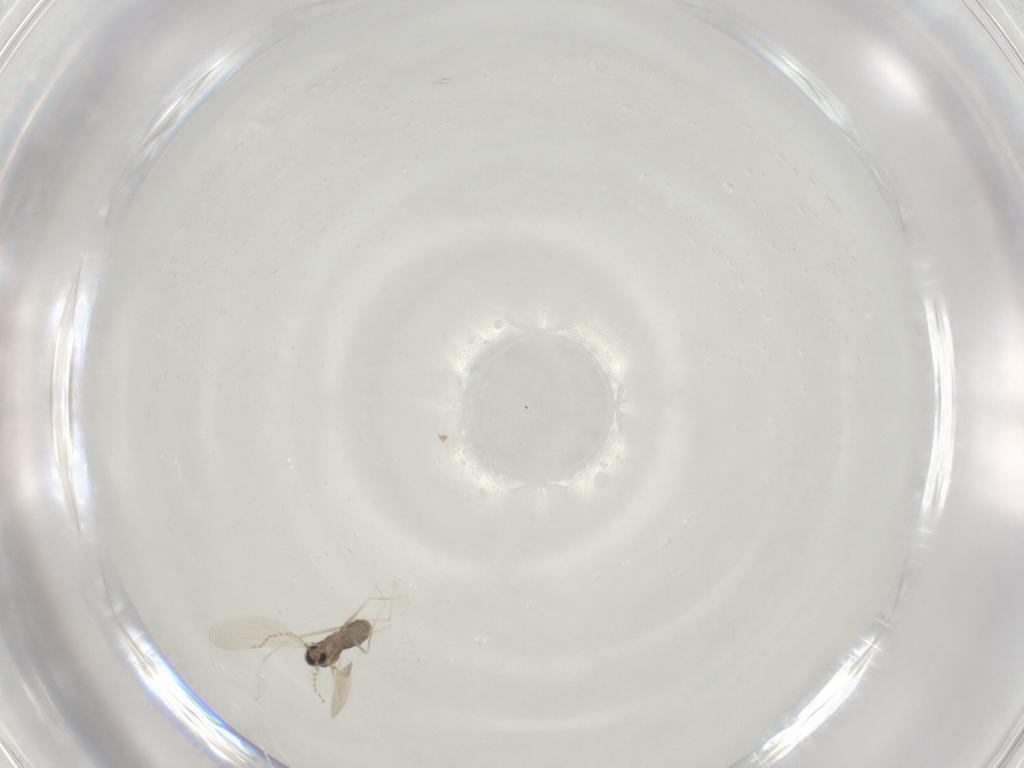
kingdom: Animalia
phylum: Arthropoda
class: Insecta
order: Diptera
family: Cecidomyiidae
